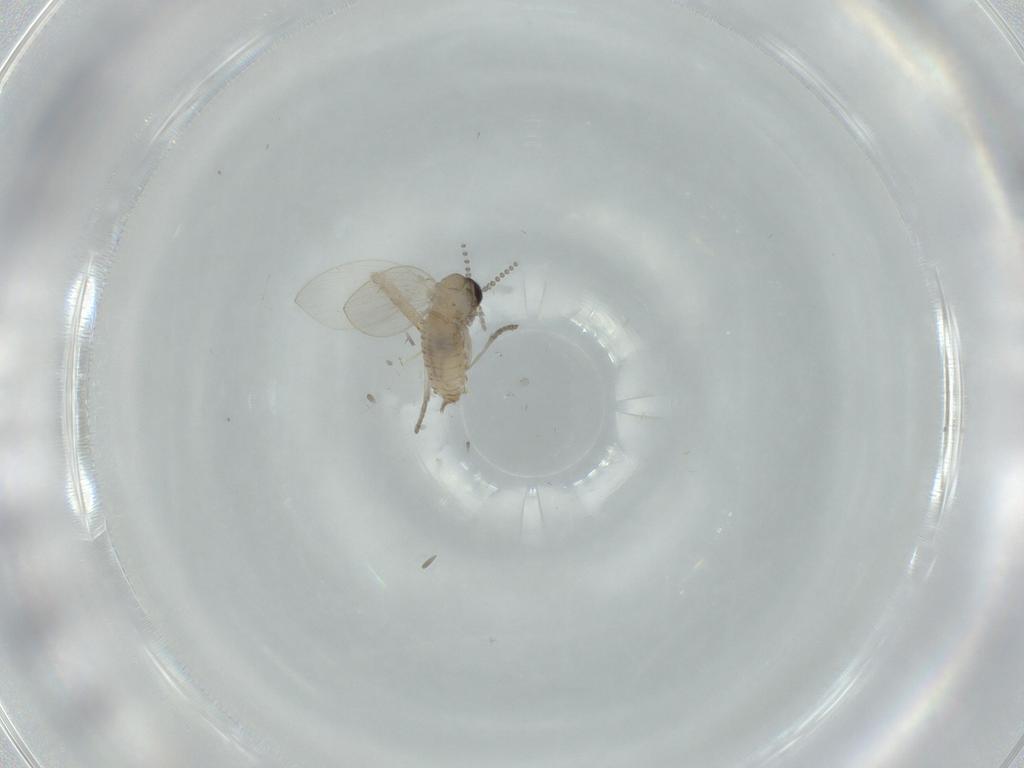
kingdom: Animalia
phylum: Arthropoda
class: Insecta
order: Diptera
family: Psychodidae
